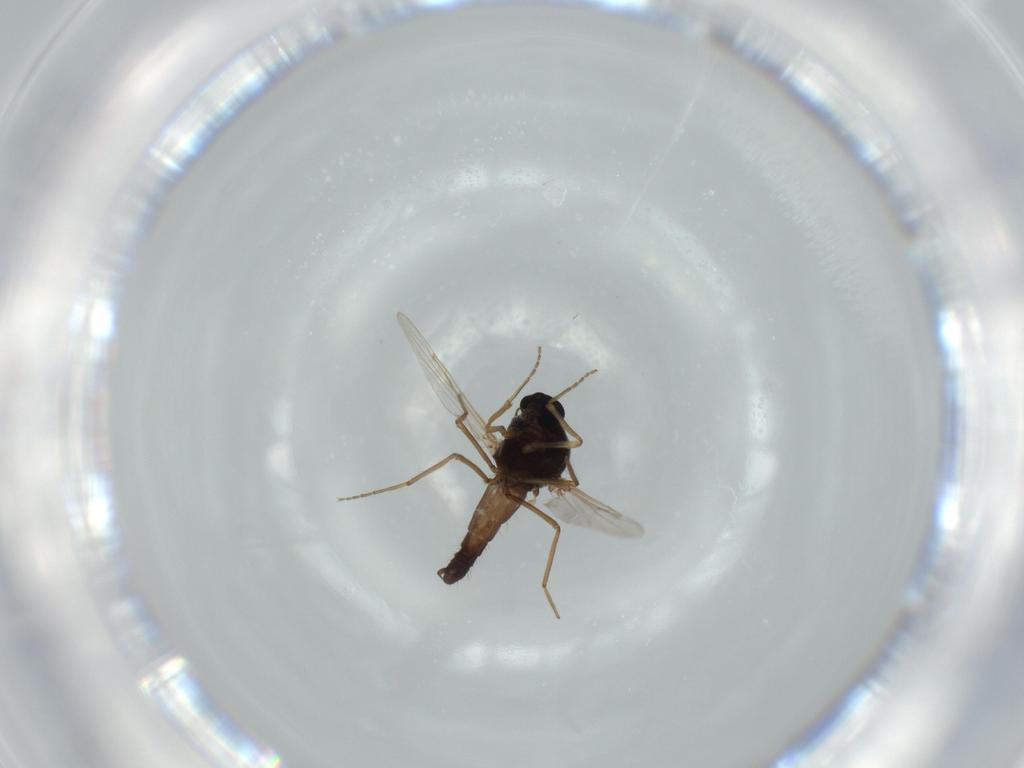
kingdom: Animalia
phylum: Arthropoda
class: Insecta
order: Diptera
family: Ceratopogonidae
